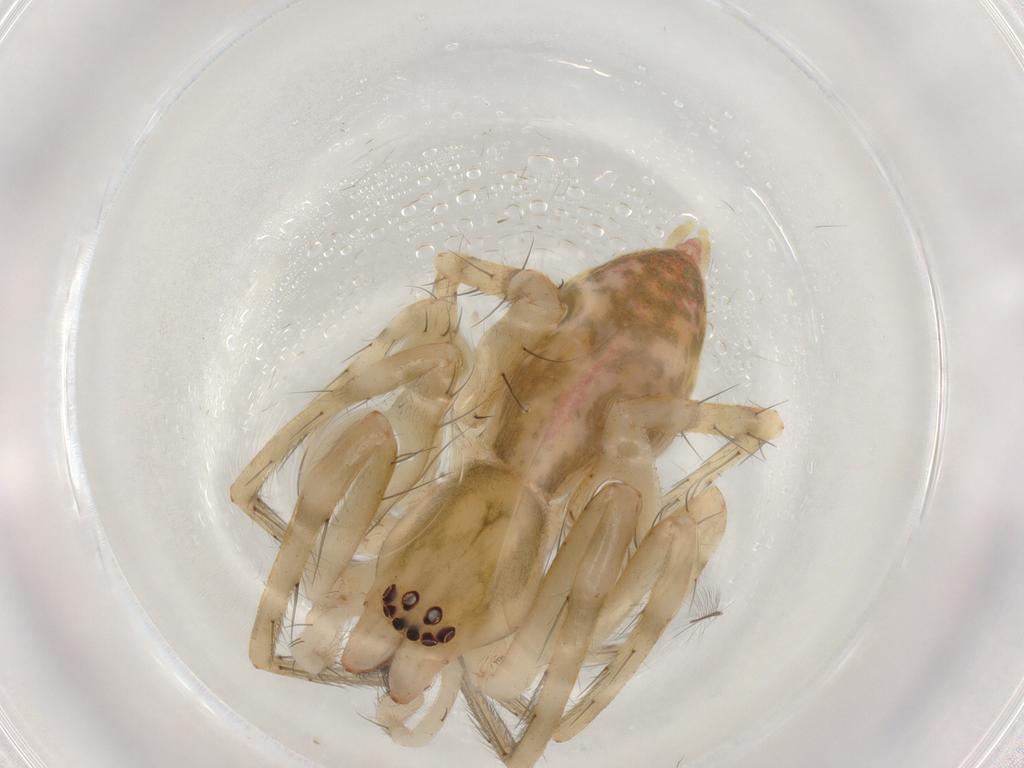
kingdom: Animalia
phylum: Arthropoda
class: Arachnida
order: Araneae
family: Anyphaenidae
